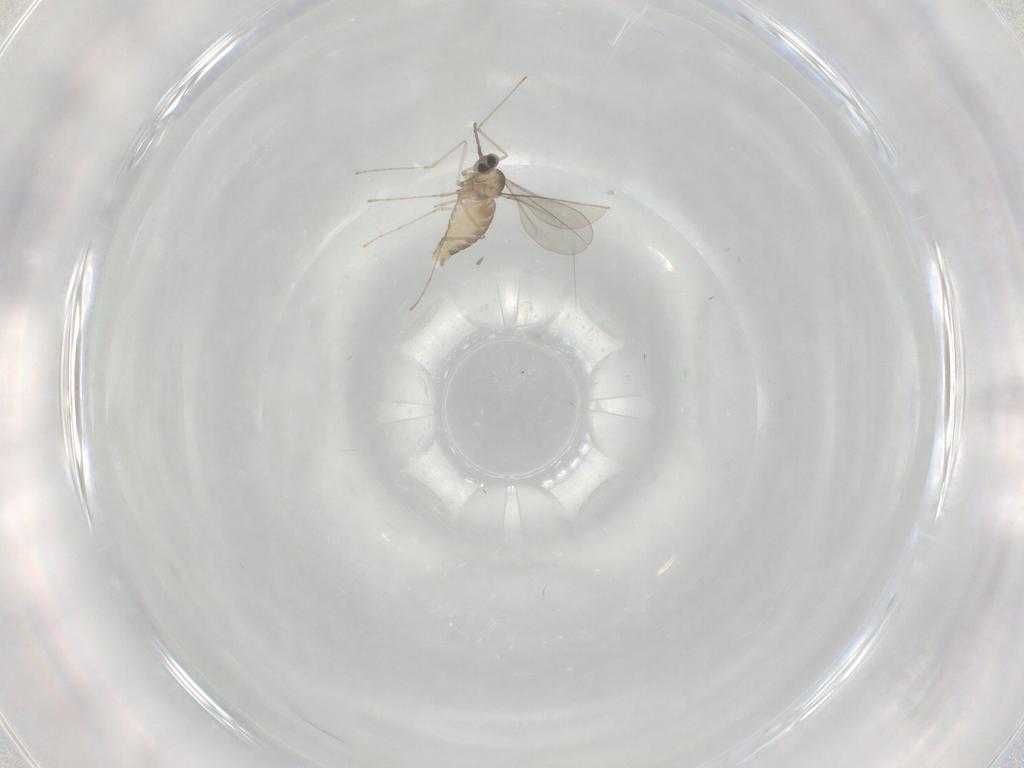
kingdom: Animalia
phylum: Arthropoda
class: Insecta
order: Diptera
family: Cecidomyiidae
